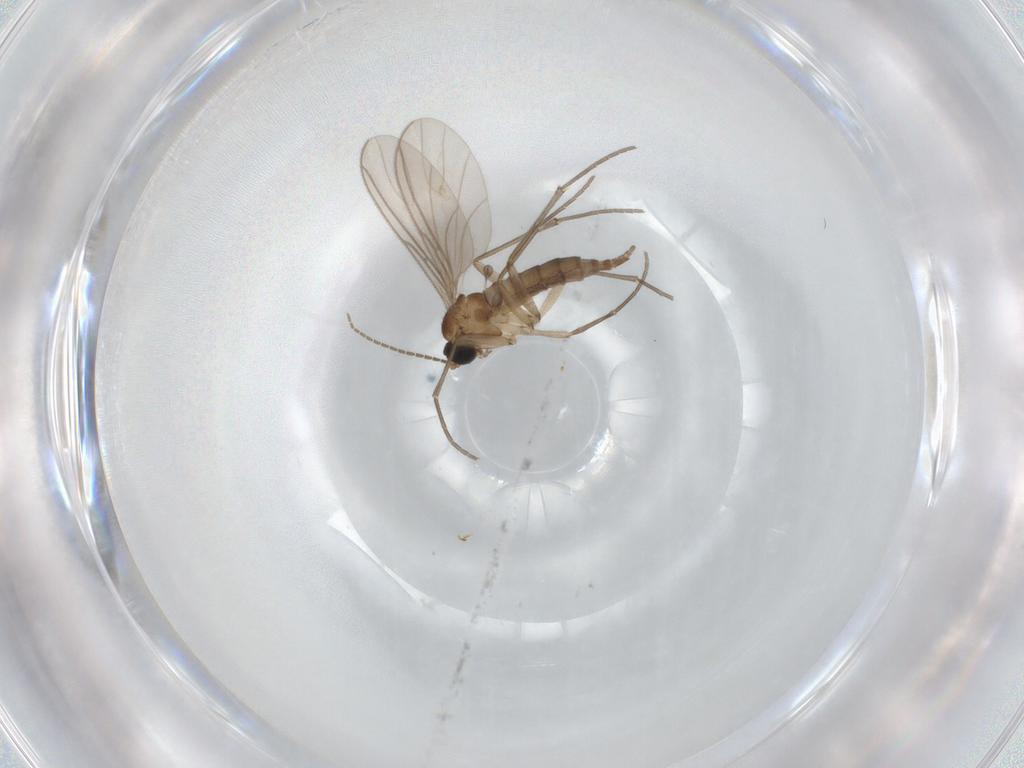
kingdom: Animalia
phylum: Arthropoda
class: Insecta
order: Diptera
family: Sciaridae
